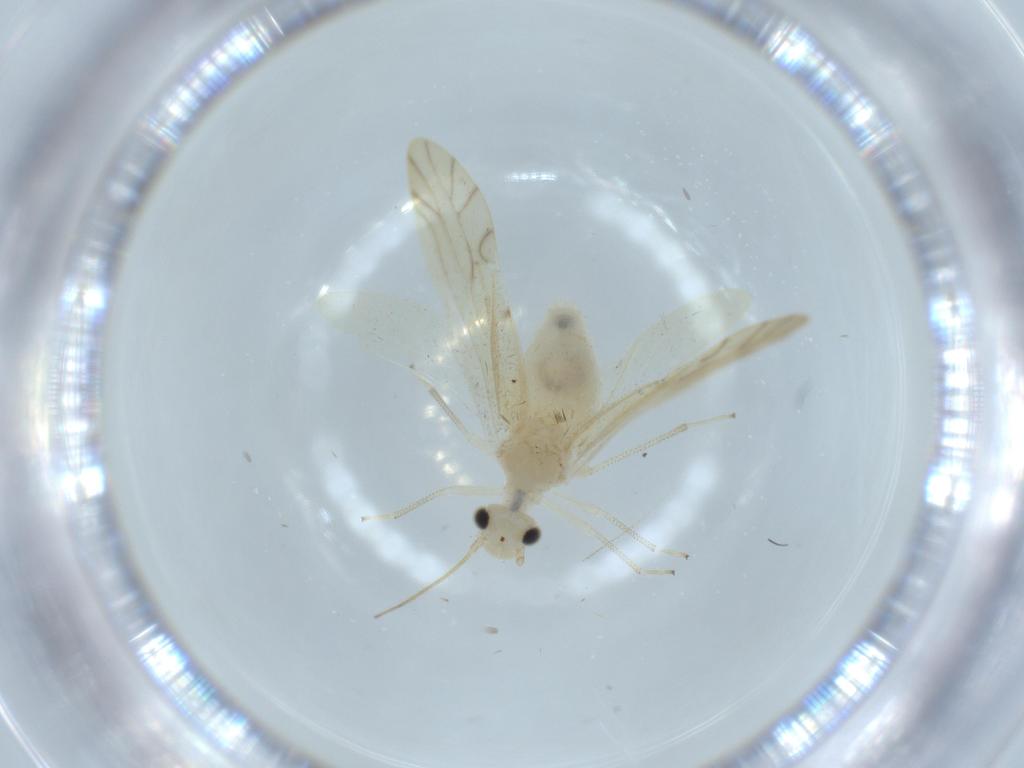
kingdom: Animalia
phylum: Arthropoda
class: Insecta
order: Psocodea
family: Caeciliusidae
